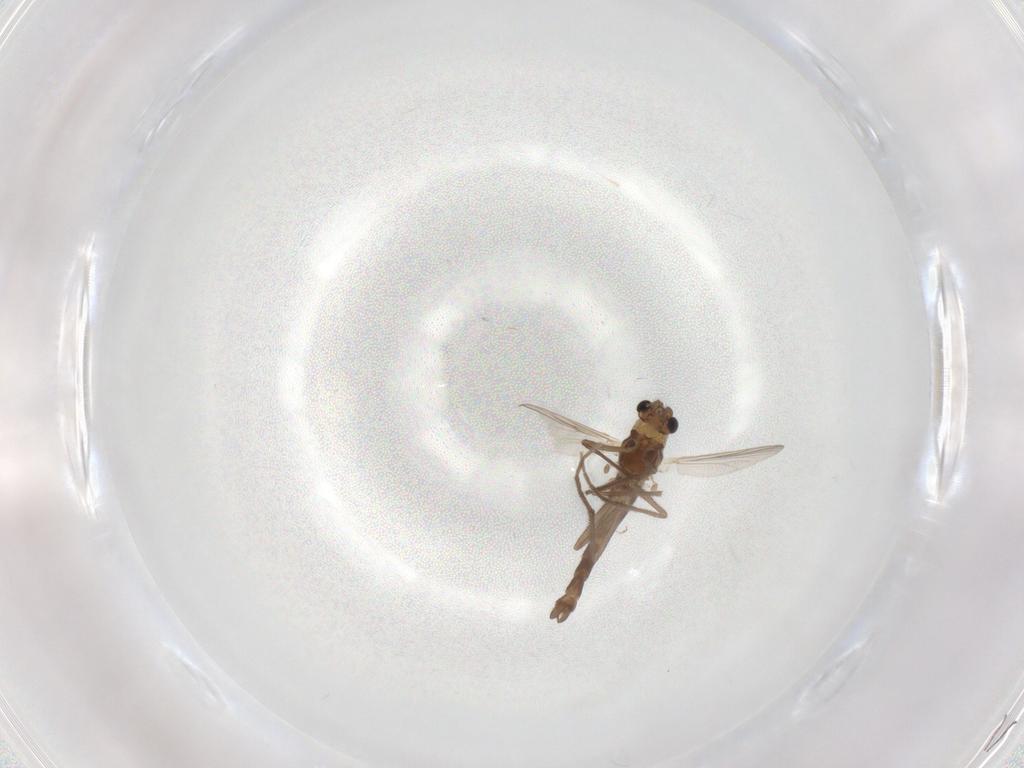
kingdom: Animalia
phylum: Arthropoda
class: Insecta
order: Diptera
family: Chironomidae
